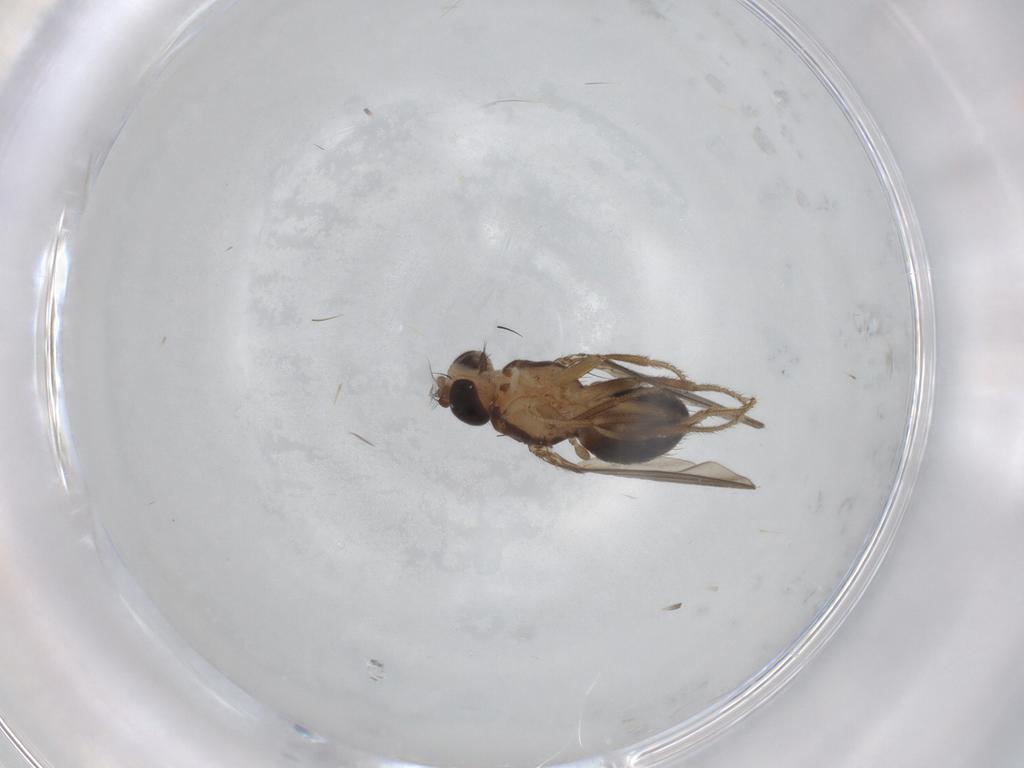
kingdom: Animalia
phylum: Arthropoda
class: Insecta
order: Diptera
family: Drosophilidae
